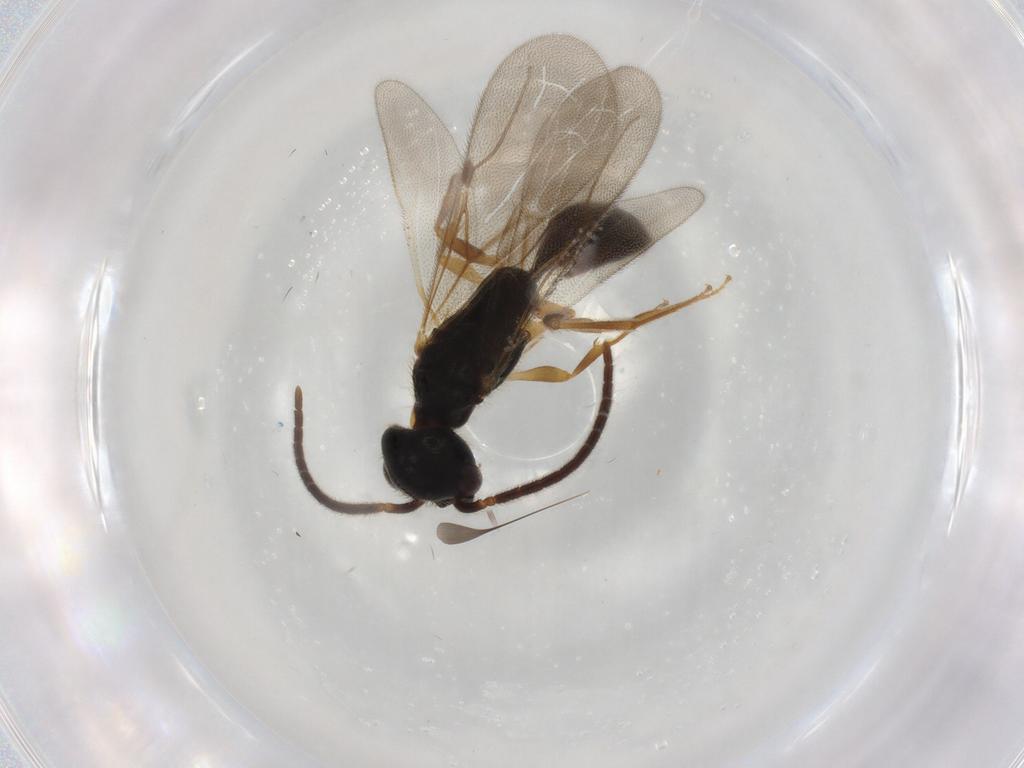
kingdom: Animalia
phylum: Arthropoda
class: Insecta
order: Hymenoptera
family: Bethylidae
